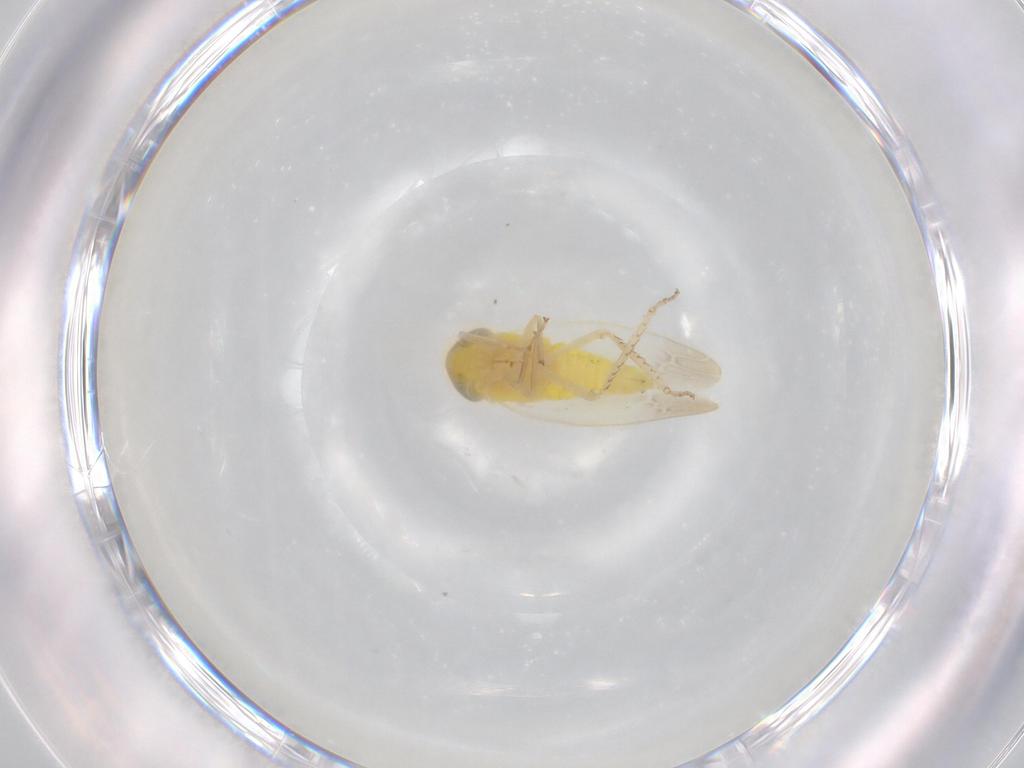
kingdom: Animalia
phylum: Arthropoda
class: Insecta
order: Hemiptera
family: Cicadellidae
